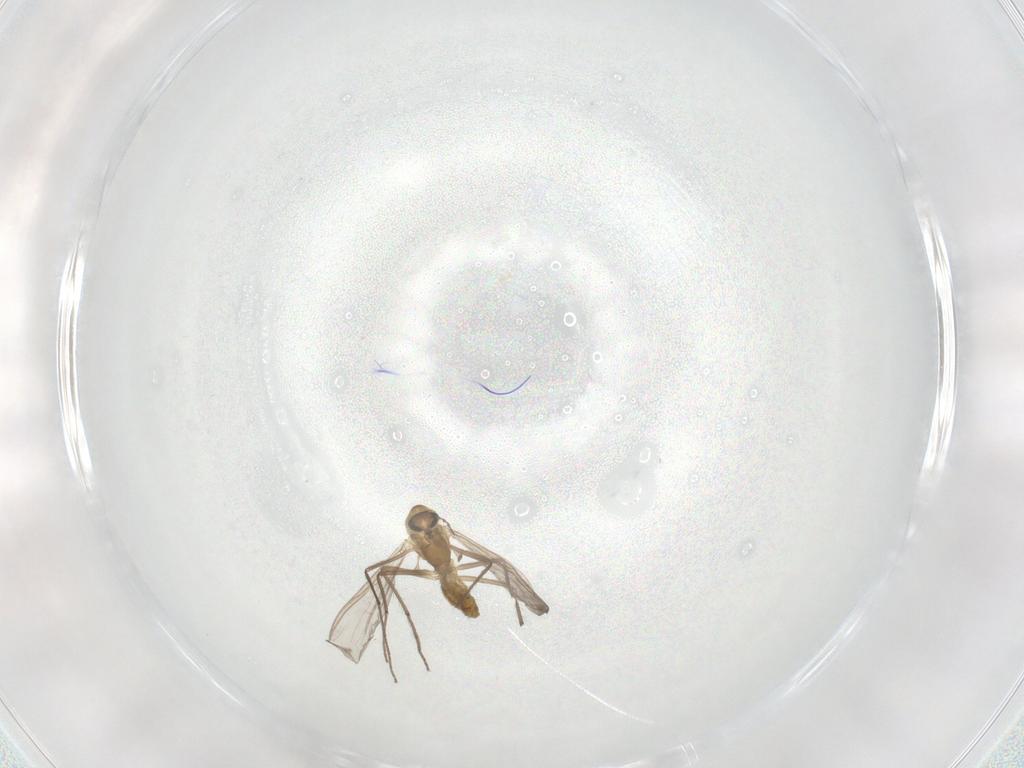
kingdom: Animalia
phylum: Arthropoda
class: Insecta
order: Diptera
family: Chironomidae
